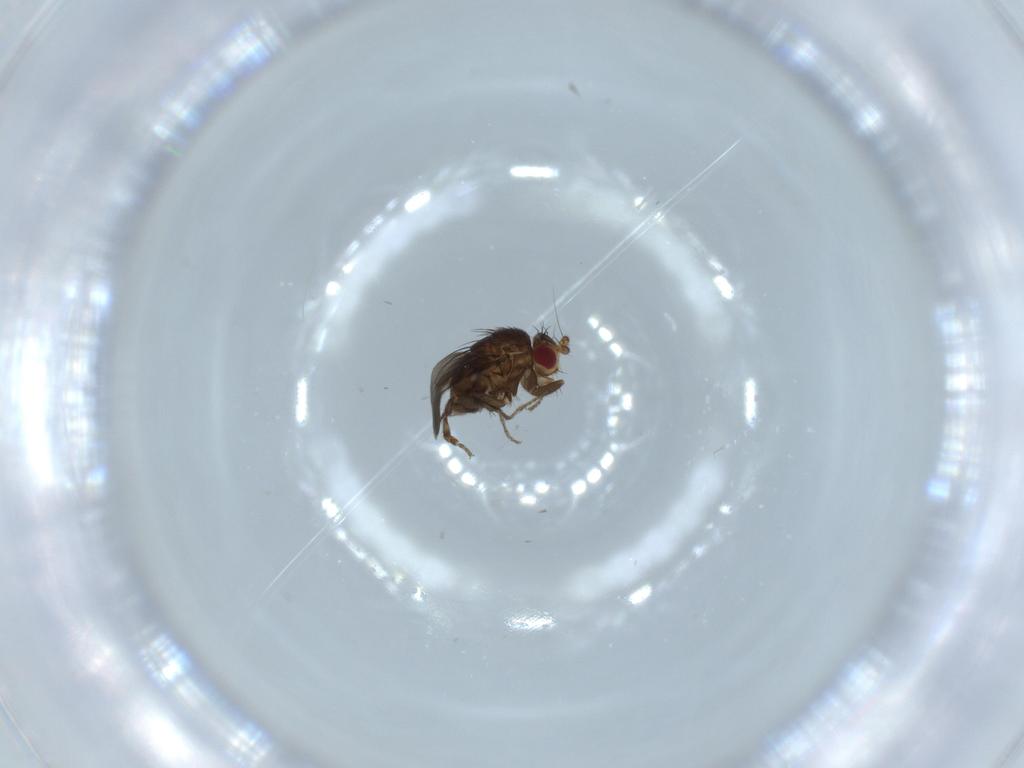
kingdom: Animalia
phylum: Arthropoda
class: Insecta
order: Diptera
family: Sphaeroceridae
